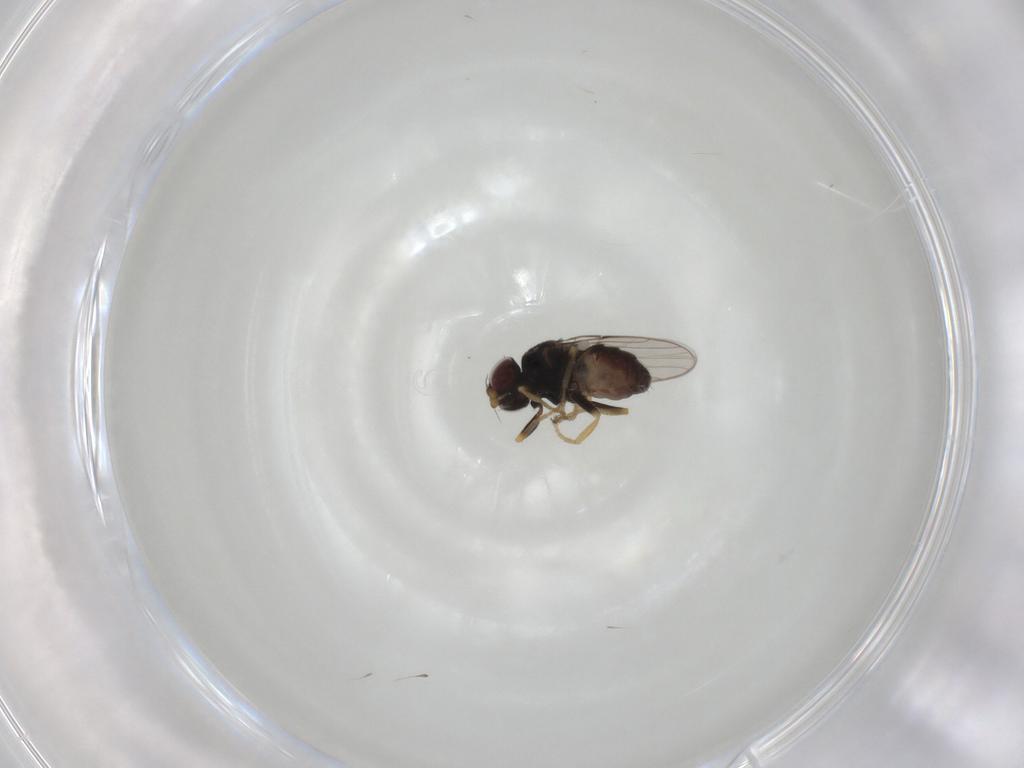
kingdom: Animalia
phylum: Arthropoda
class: Insecta
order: Diptera
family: Chloropidae
